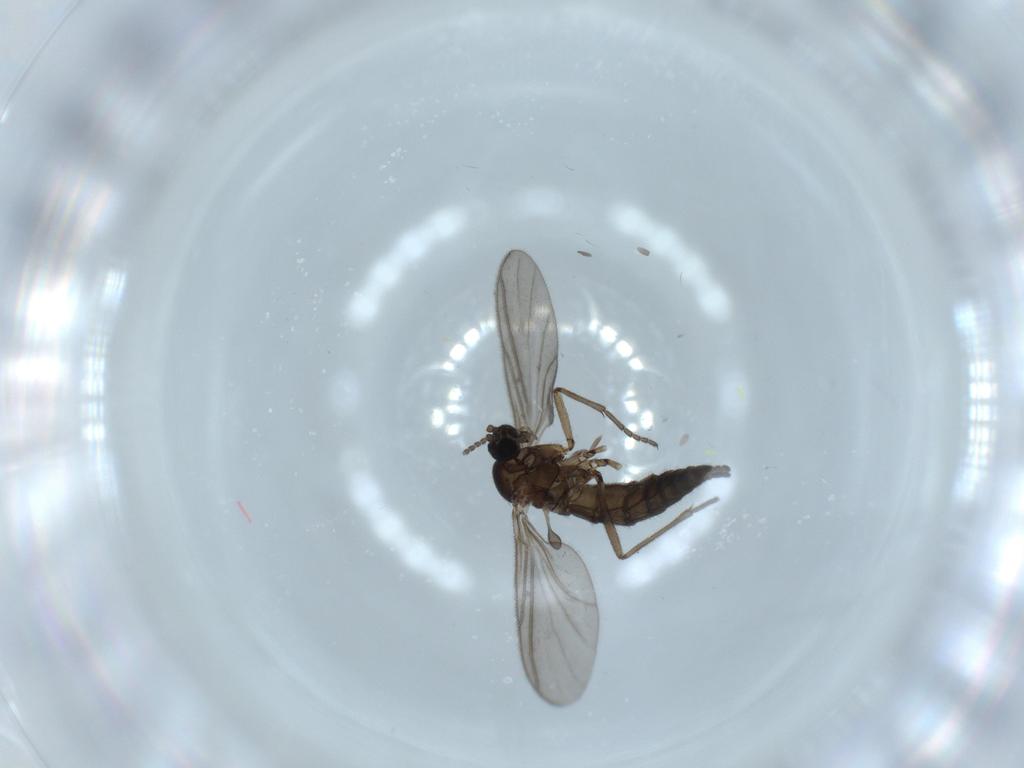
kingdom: Animalia
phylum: Arthropoda
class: Insecta
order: Diptera
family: Sciaridae
